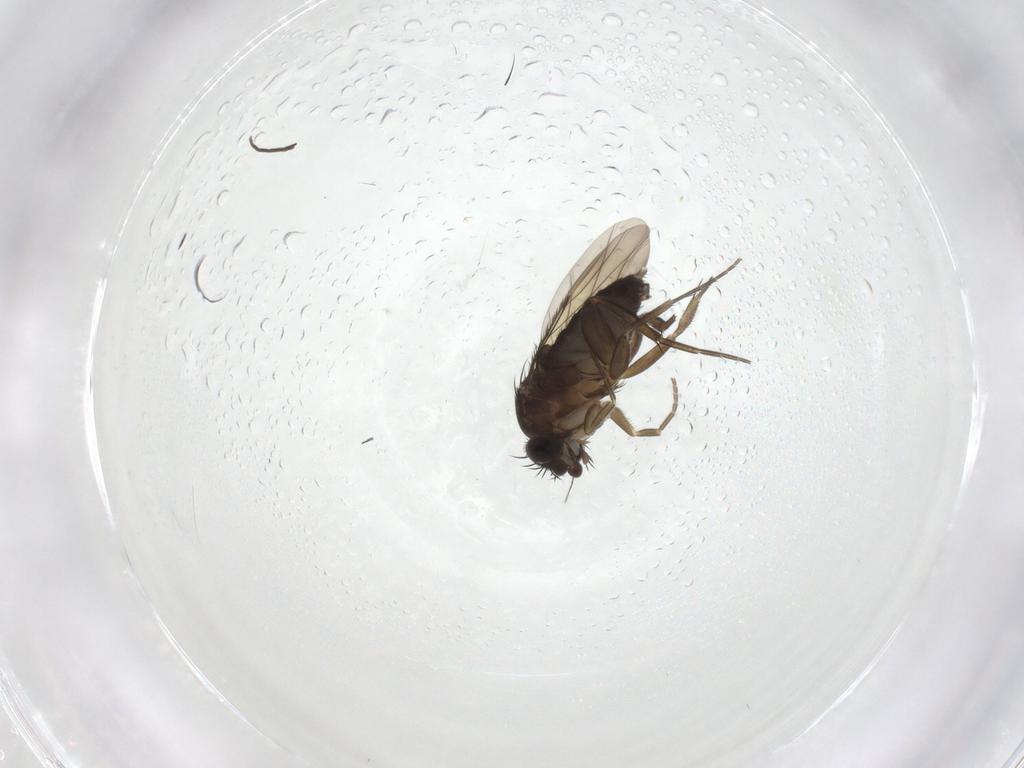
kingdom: Animalia
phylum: Arthropoda
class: Insecta
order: Diptera
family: Phoridae
